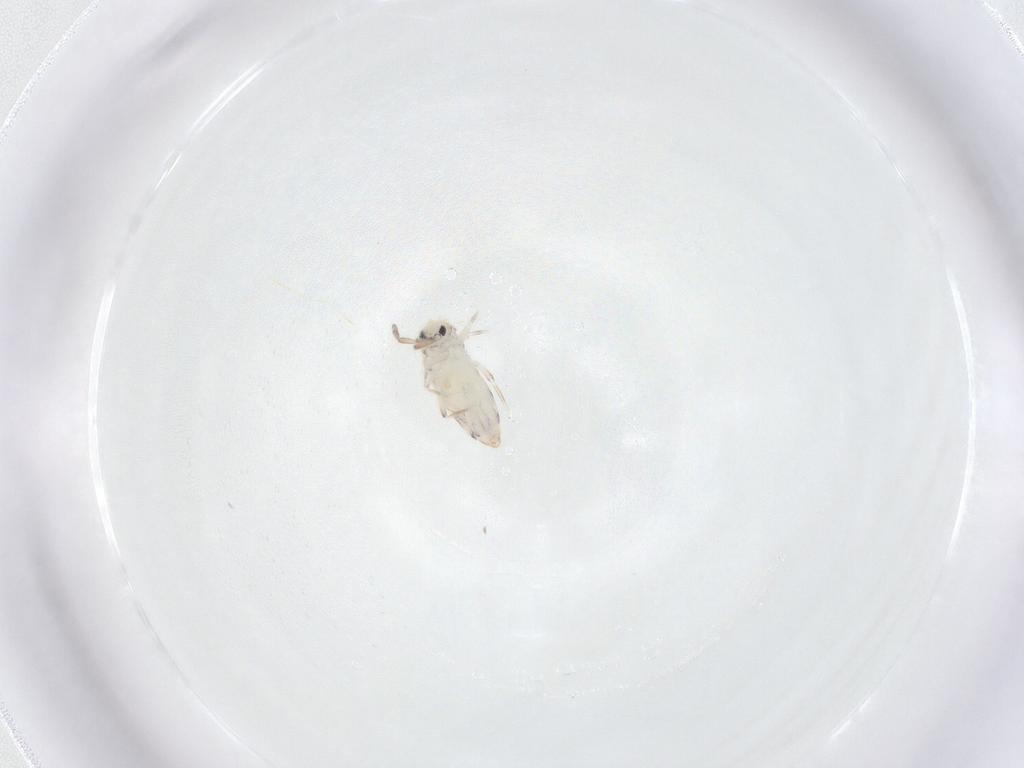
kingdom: Animalia
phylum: Arthropoda
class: Collembola
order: Entomobryomorpha
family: Entomobryidae
